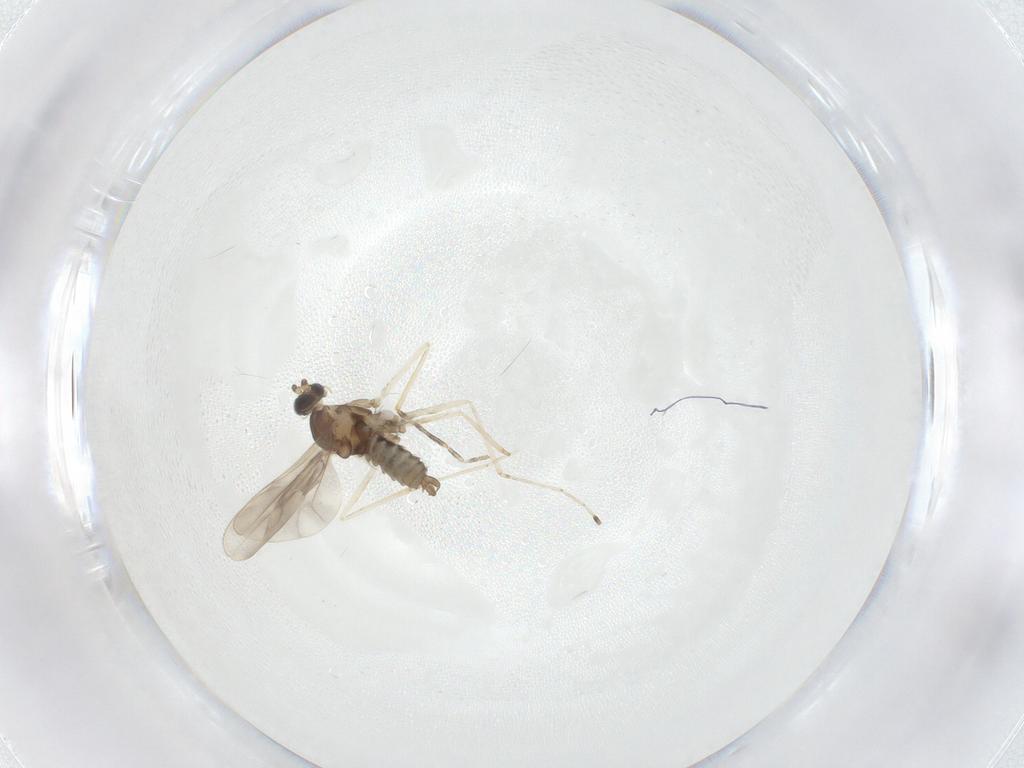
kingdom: Animalia
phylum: Arthropoda
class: Insecta
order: Diptera
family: Cecidomyiidae
